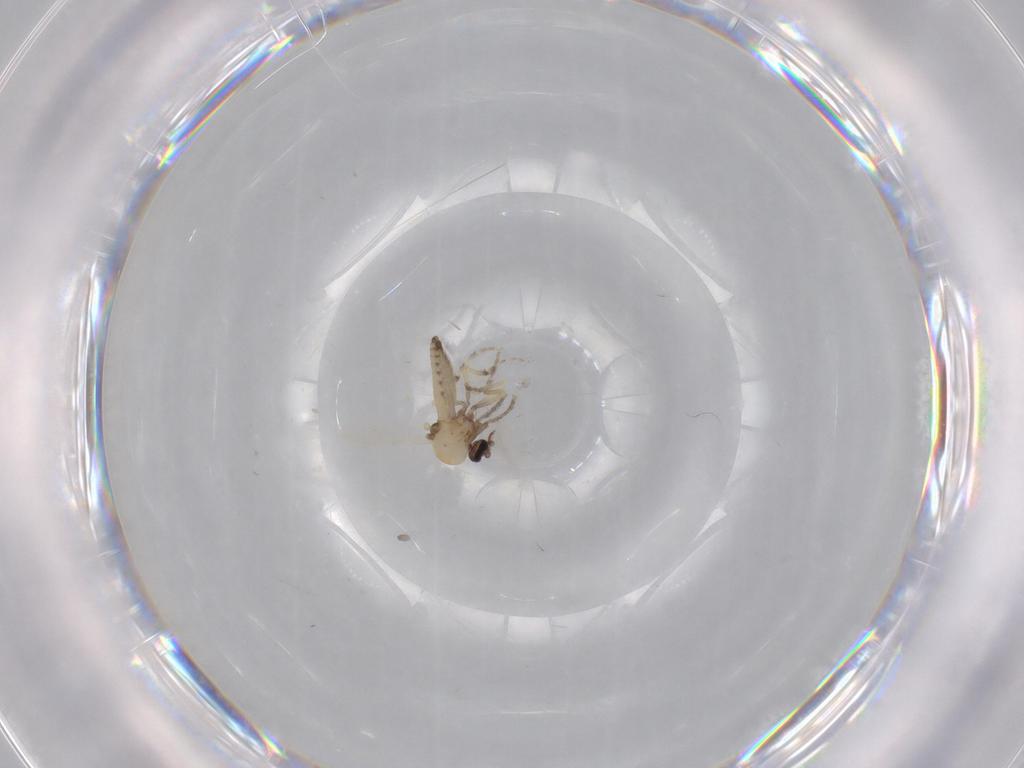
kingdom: Animalia
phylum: Arthropoda
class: Insecta
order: Diptera
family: Ceratopogonidae
